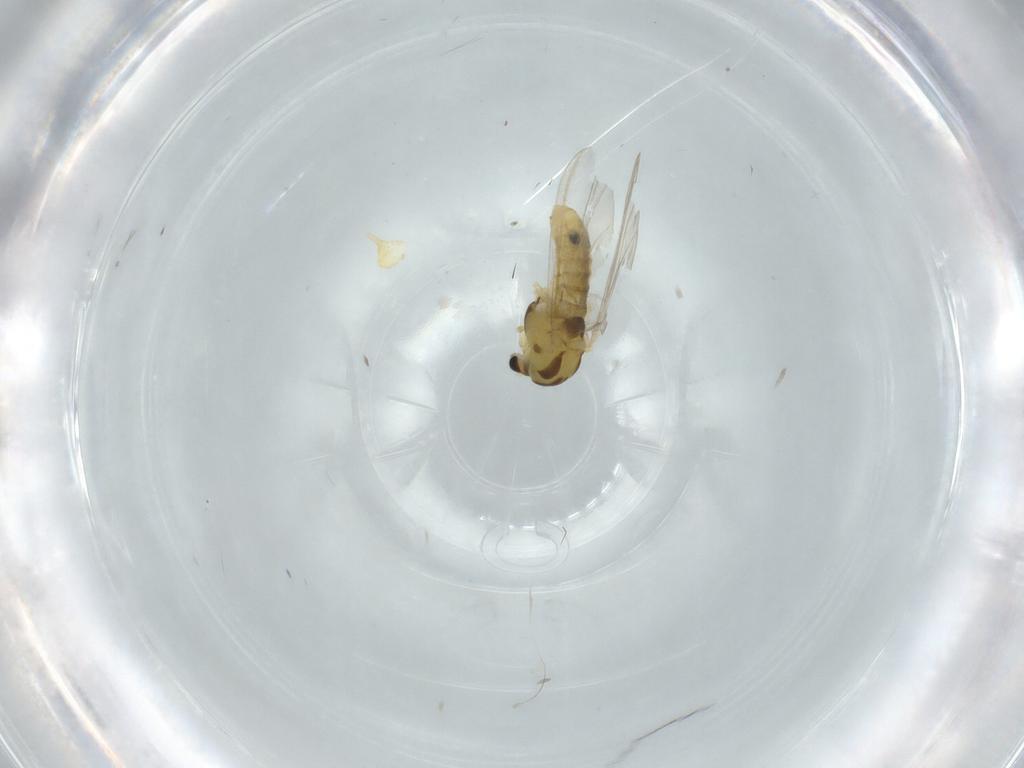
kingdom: Animalia
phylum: Arthropoda
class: Insecta
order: Diptera
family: Chironomidae
